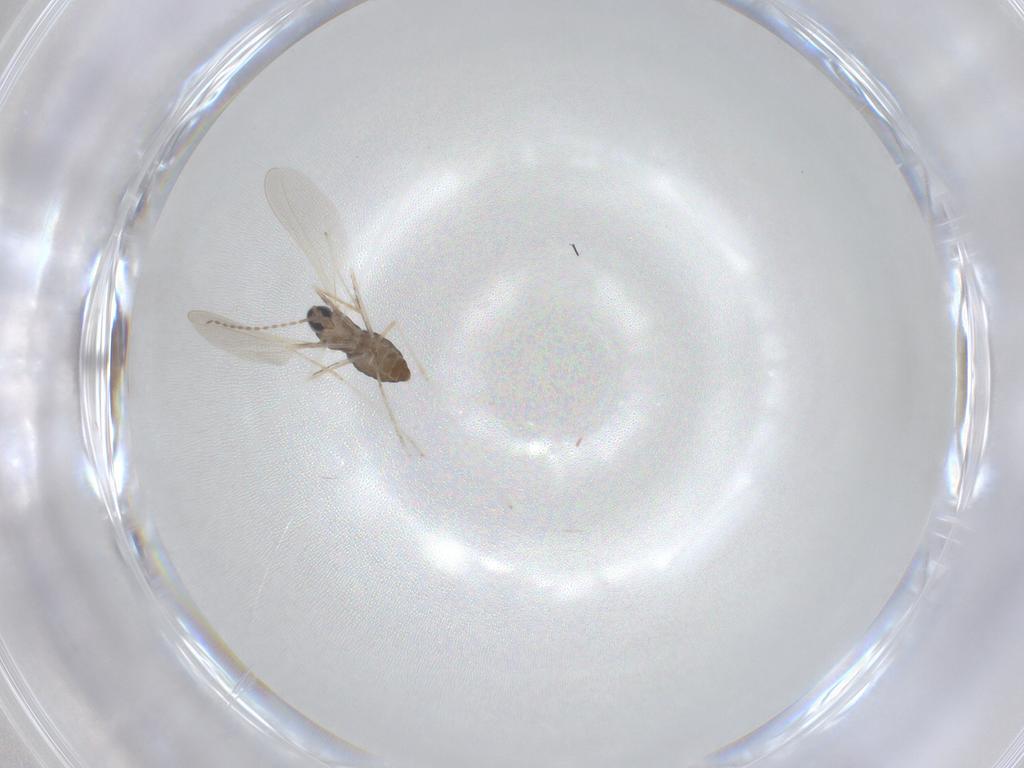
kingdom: Animalia
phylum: Arthropoda
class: Insecta
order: Diptera
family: Cecidomyiidae
